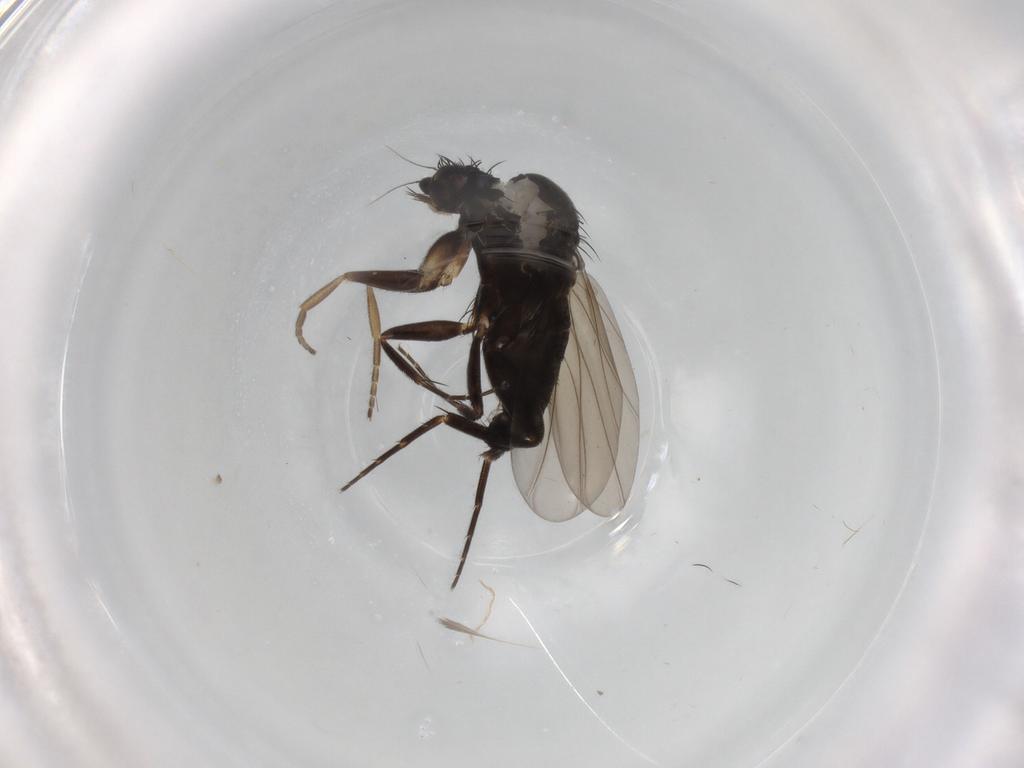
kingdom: Animalia
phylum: Arthropoda
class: Insecta
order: Diptera
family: Phoridae
